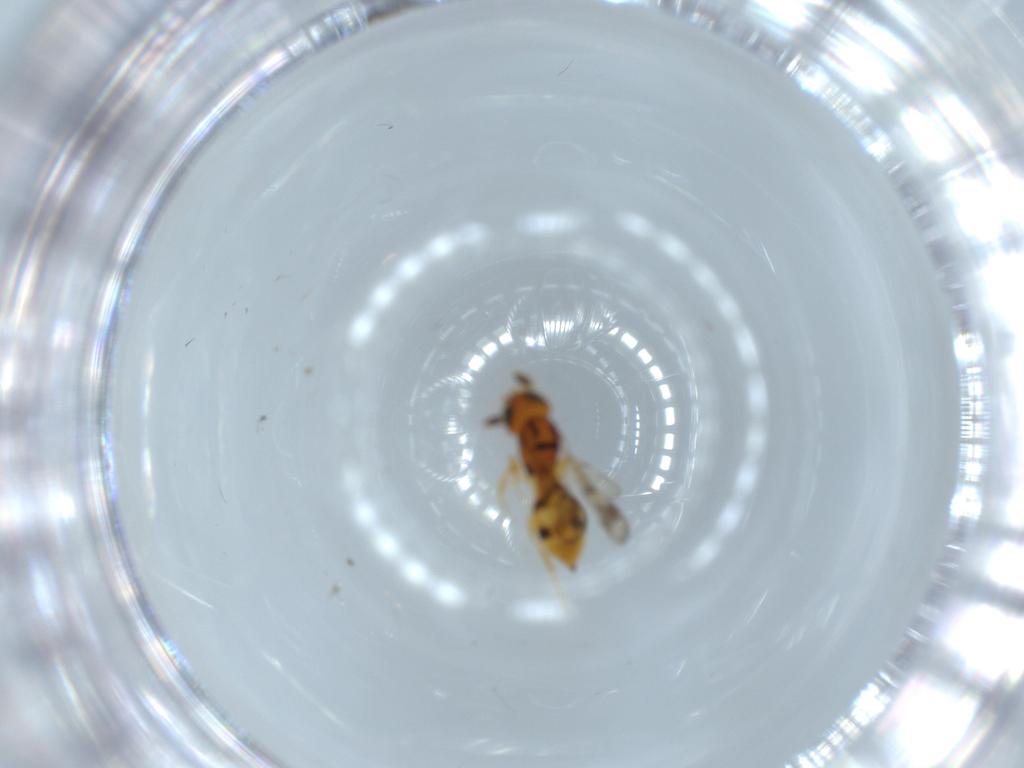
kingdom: Animalia
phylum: Arthropoda
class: Insecta
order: Hymenoptera
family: Scelionidae
